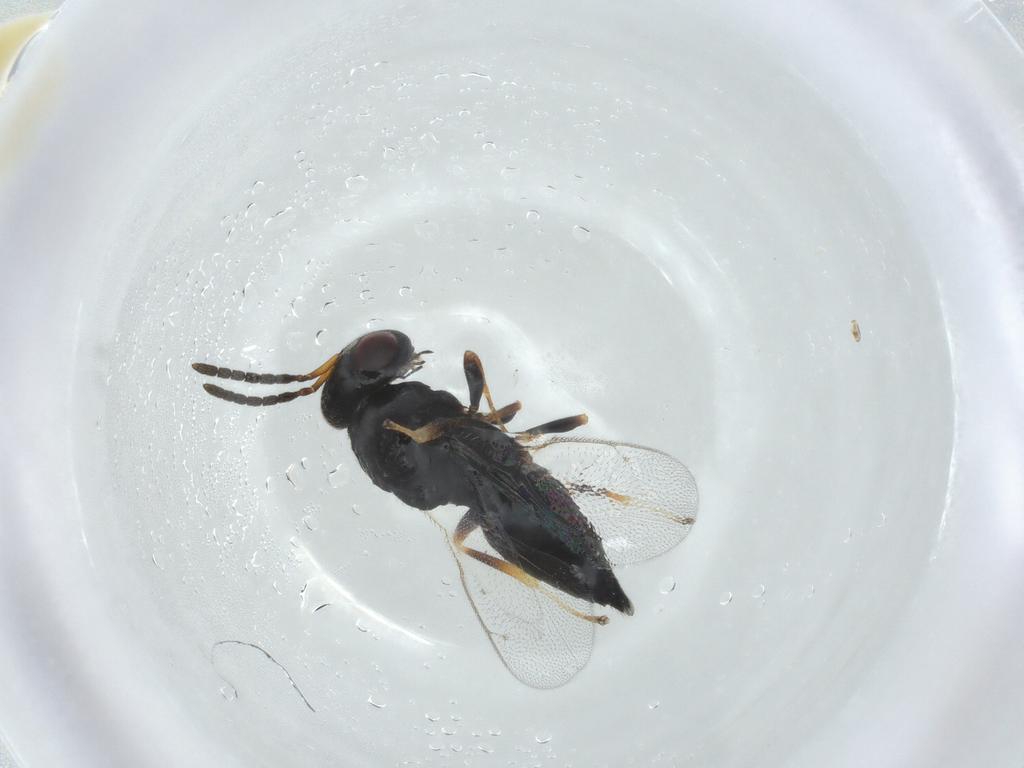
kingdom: Animalia
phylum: Arthropoda
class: Insecta
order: Hymenoptera
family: Pteromalidae
